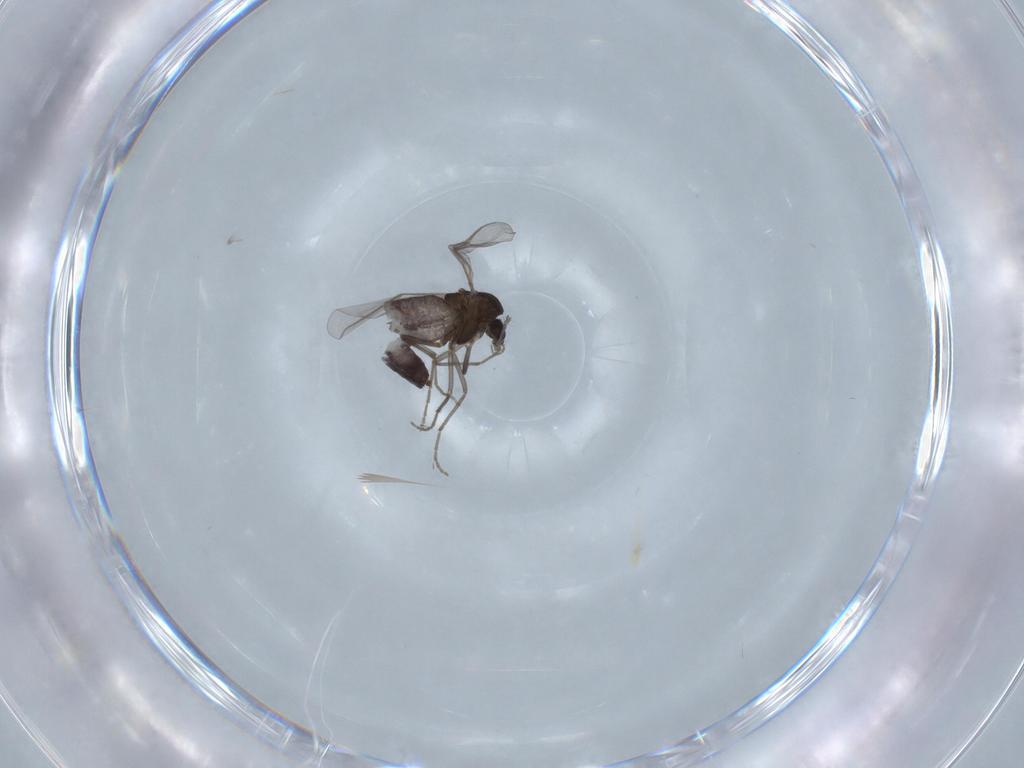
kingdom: Animalia
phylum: Arthropoda
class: Insecta
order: Diptera
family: Chironomidae
